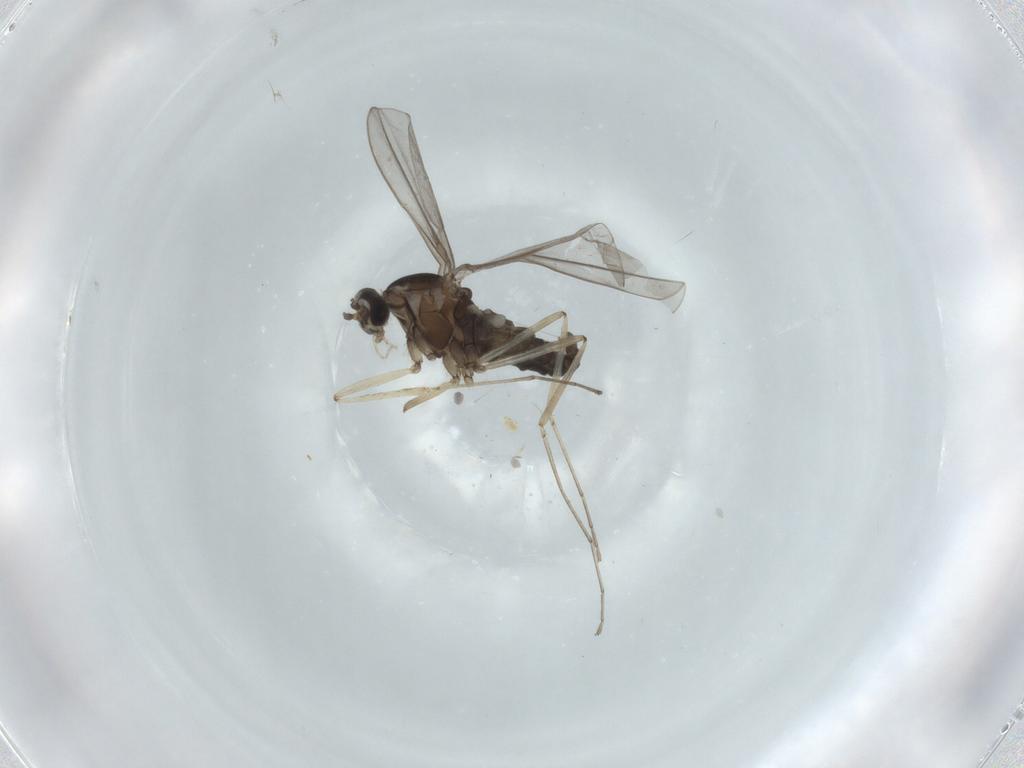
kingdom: Animalia
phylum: Arthropoda
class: Insecta
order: Diptera
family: Cecidomyiidae
